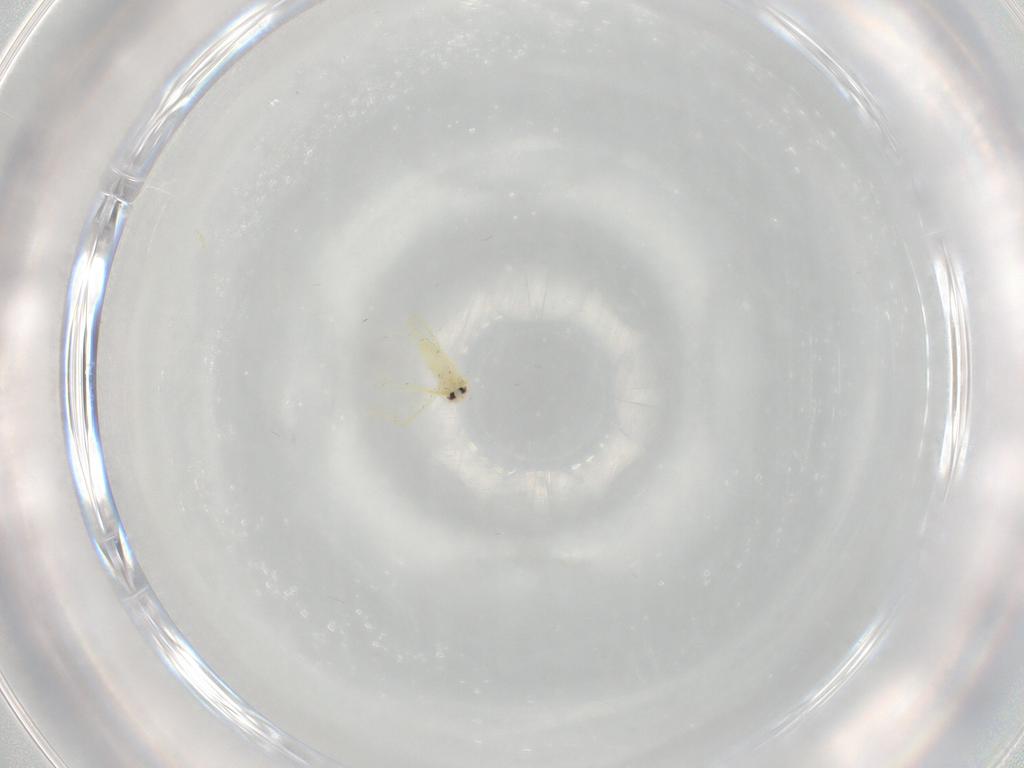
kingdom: Animalia
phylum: Arthropoda
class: Insecta
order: Hemiptera
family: Aleyrodidae
